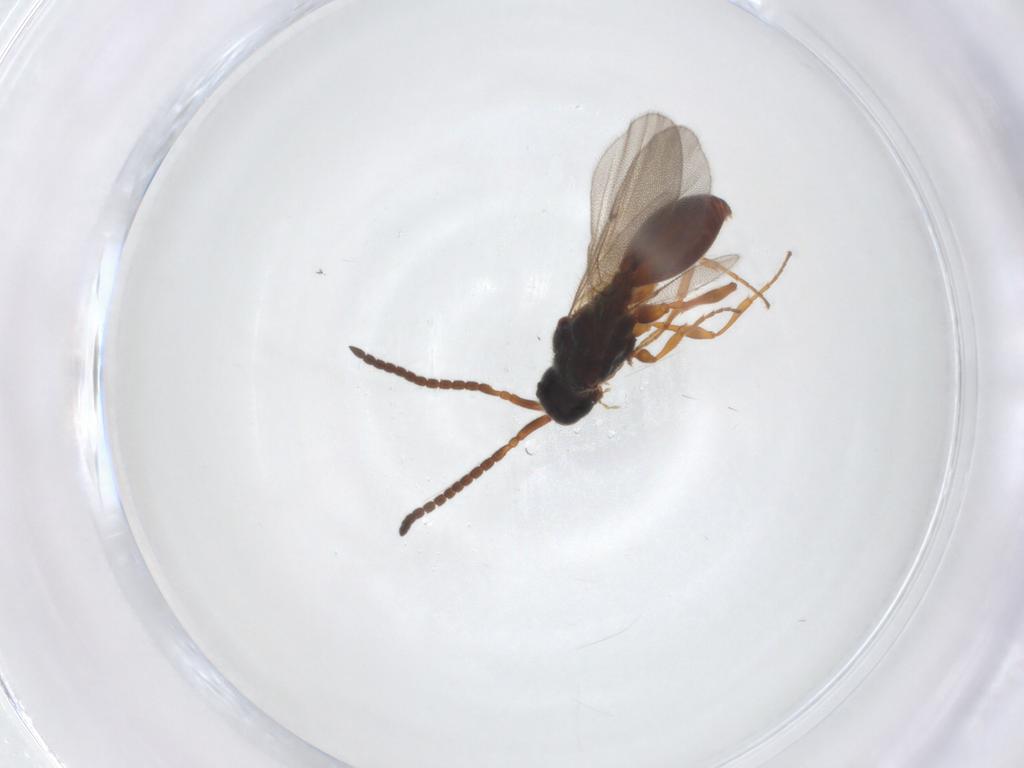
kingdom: Animalia
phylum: Arthropoda
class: Insecta
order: Hymenoptera
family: Diapriidae
